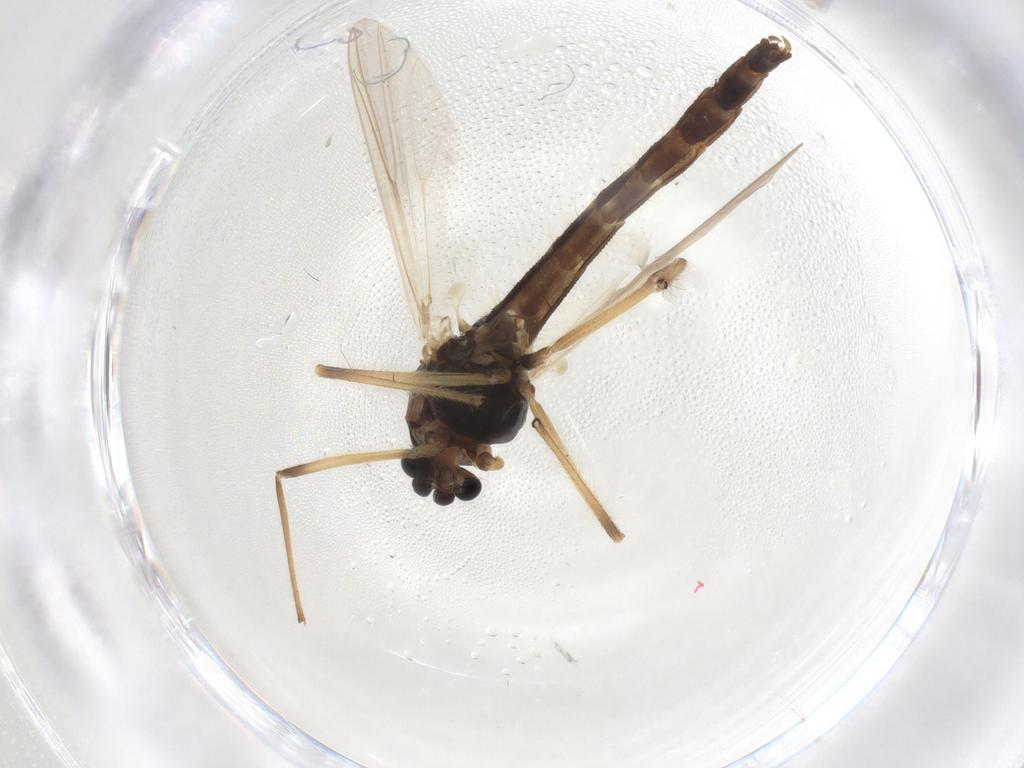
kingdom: Animalia
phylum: Arthropoda
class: Insecta
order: Diptera
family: Chironomidae
